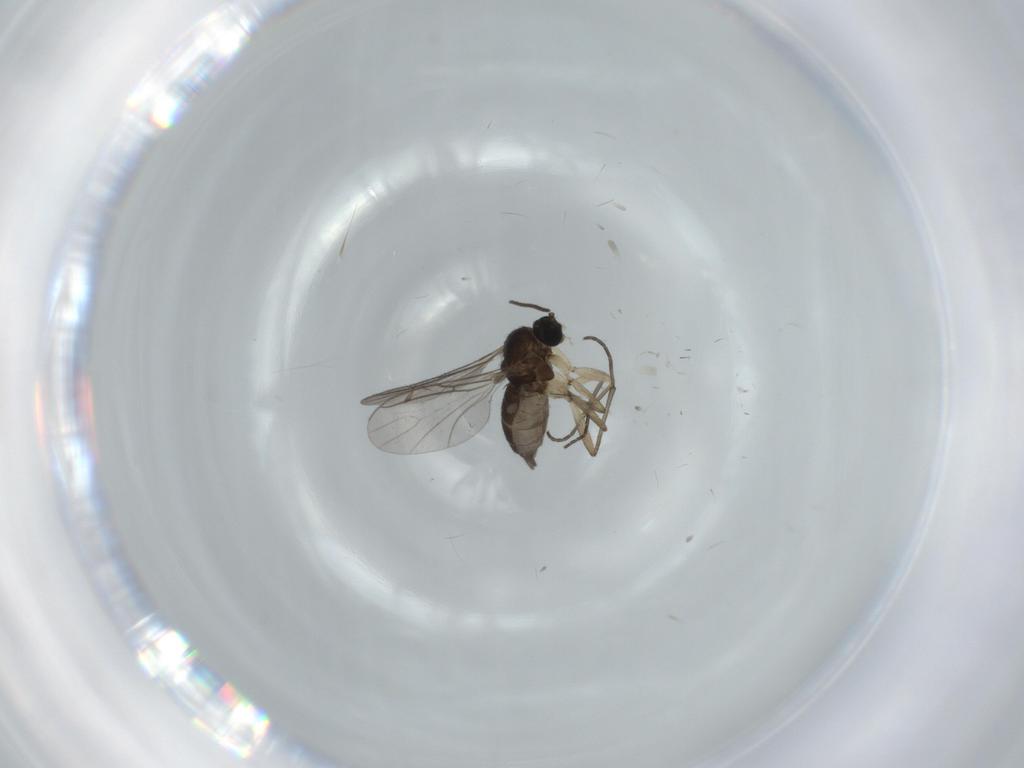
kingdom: Animalia
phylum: Arthropoda
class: Insecta
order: Diptera
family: Sciaridae
